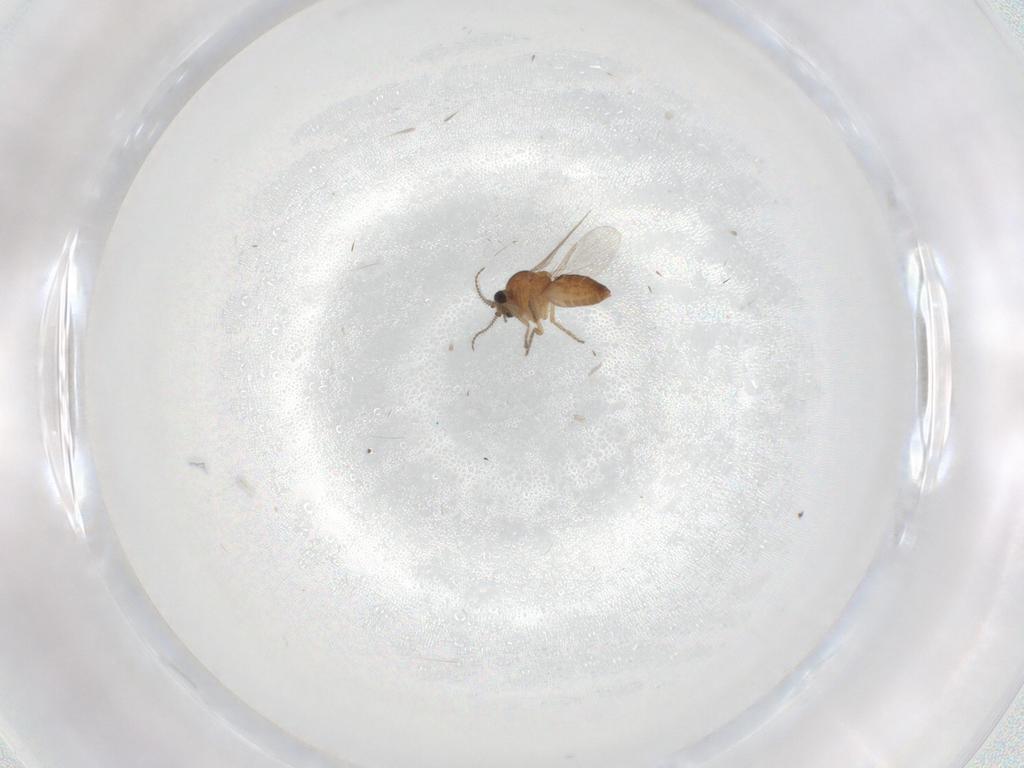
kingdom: Animalia
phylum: Arthropoda
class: Insecta
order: Diptera
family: Ceratopogonidae
